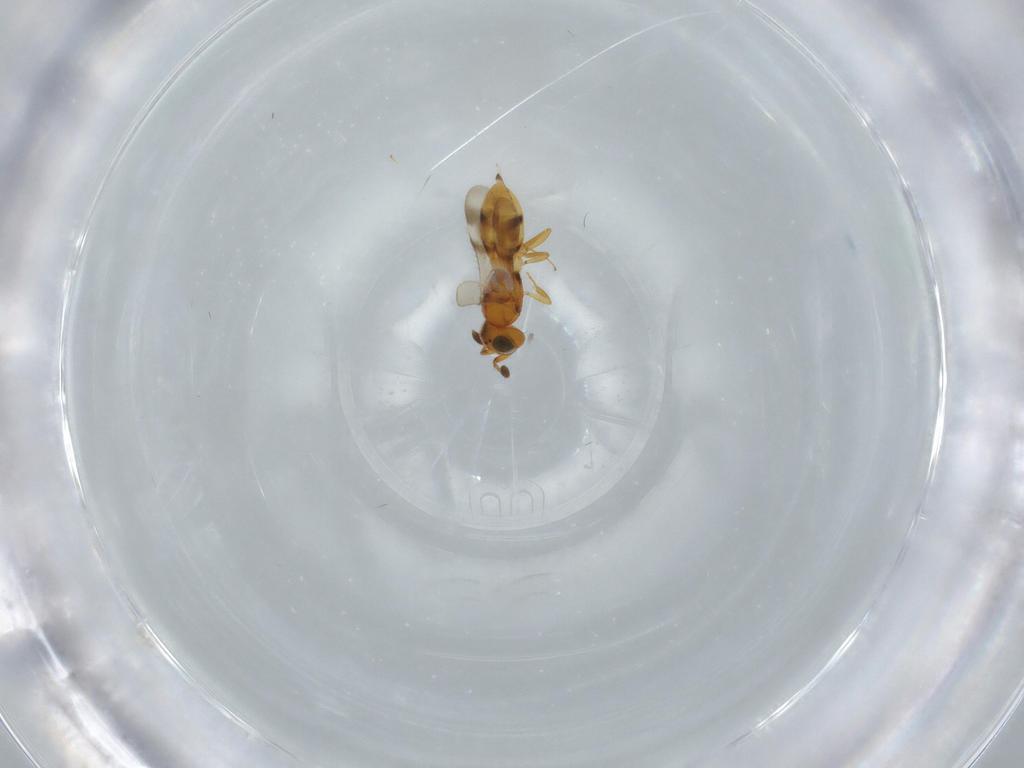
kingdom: Animalia
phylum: Arthropoda
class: Insecta
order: Hymenoptera
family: Scelionidae
